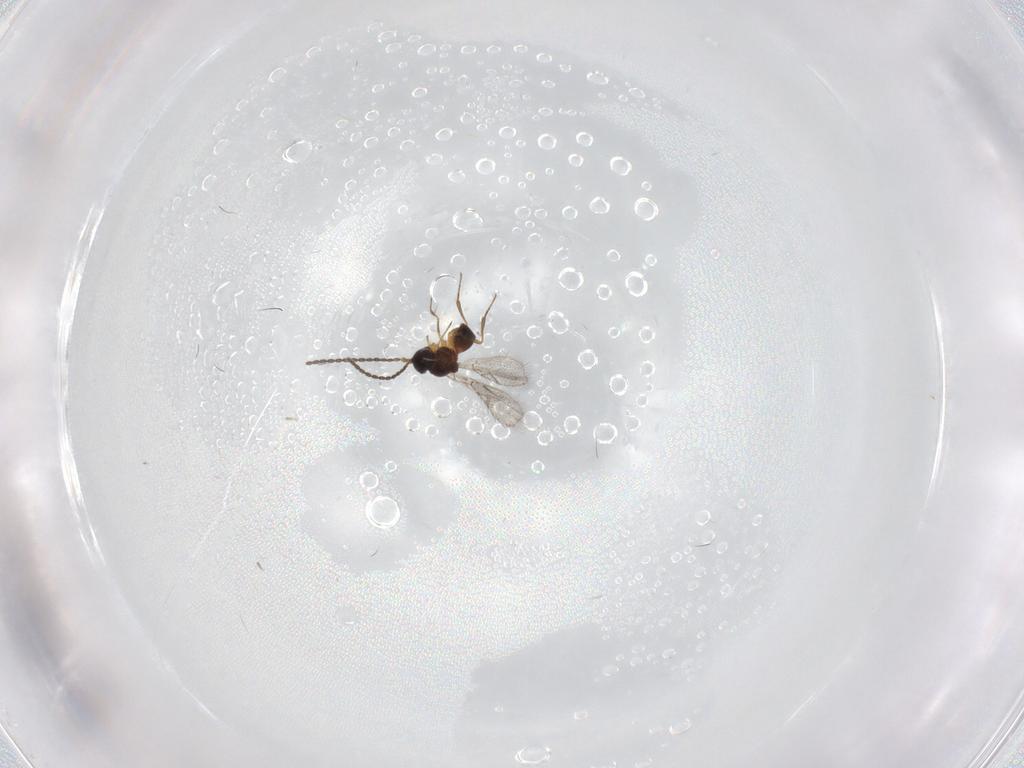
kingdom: Animalia
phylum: Arthropoda
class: Insecta
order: Hymenoptera
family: Figitidae
